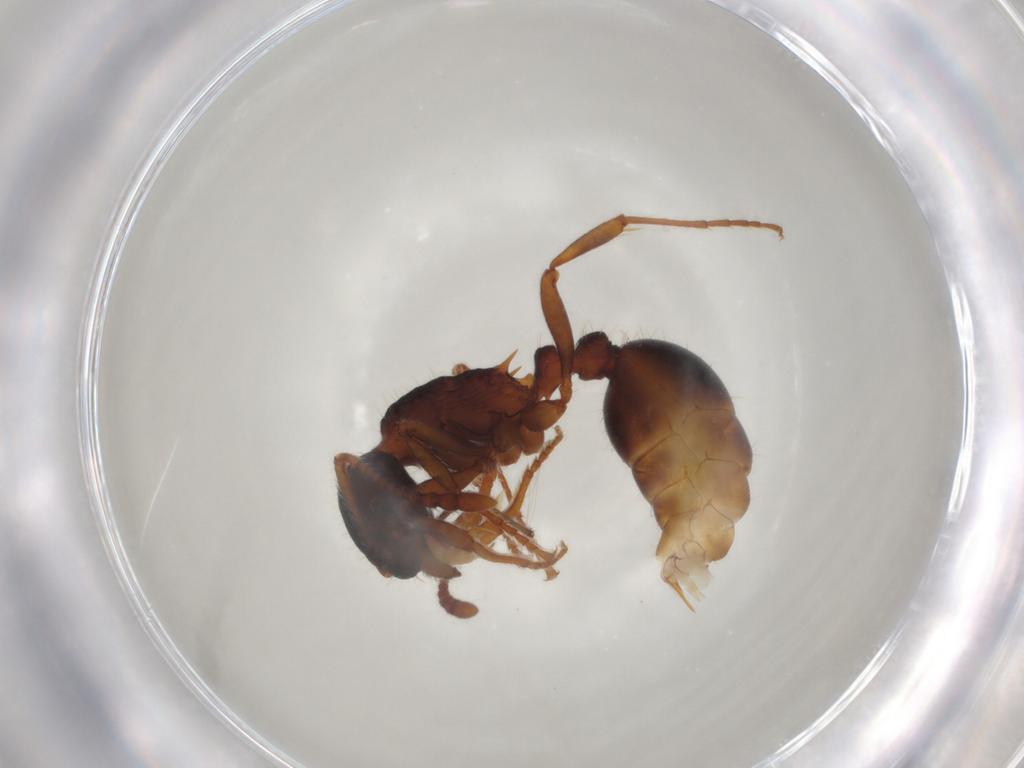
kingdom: Animalia
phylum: Arthropoda
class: Insecta
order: Hymenoptera
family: Formicidae
